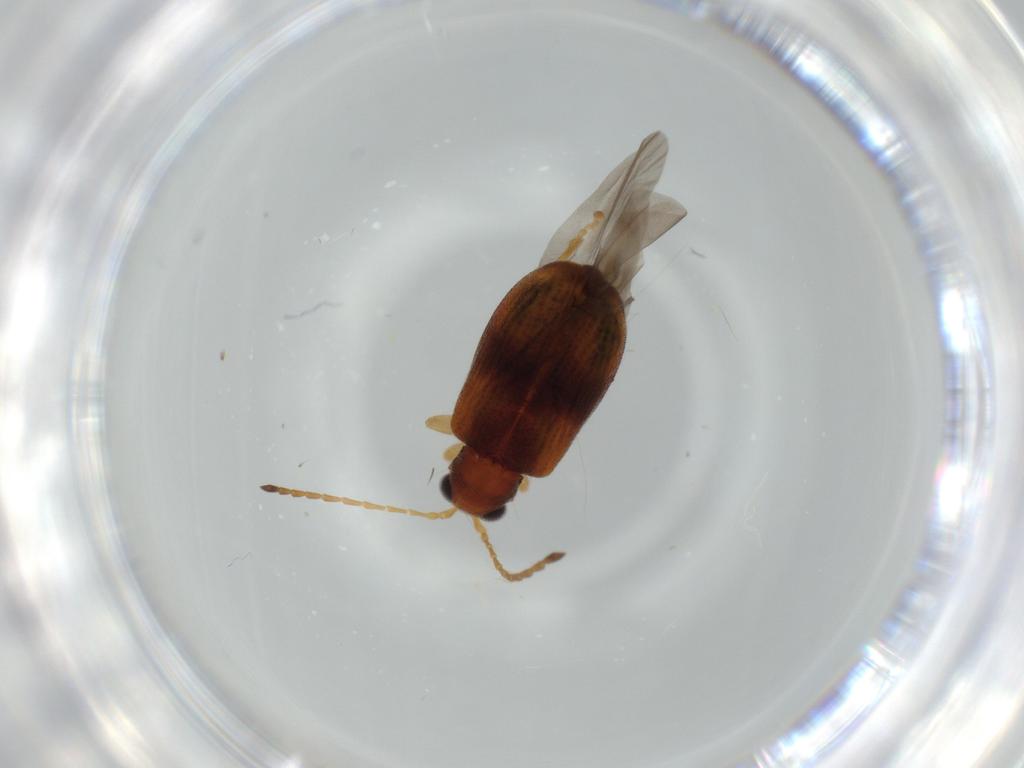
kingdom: Animalia
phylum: Arthropoda
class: Insecta
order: Coleoptera
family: Chrysomelidae
